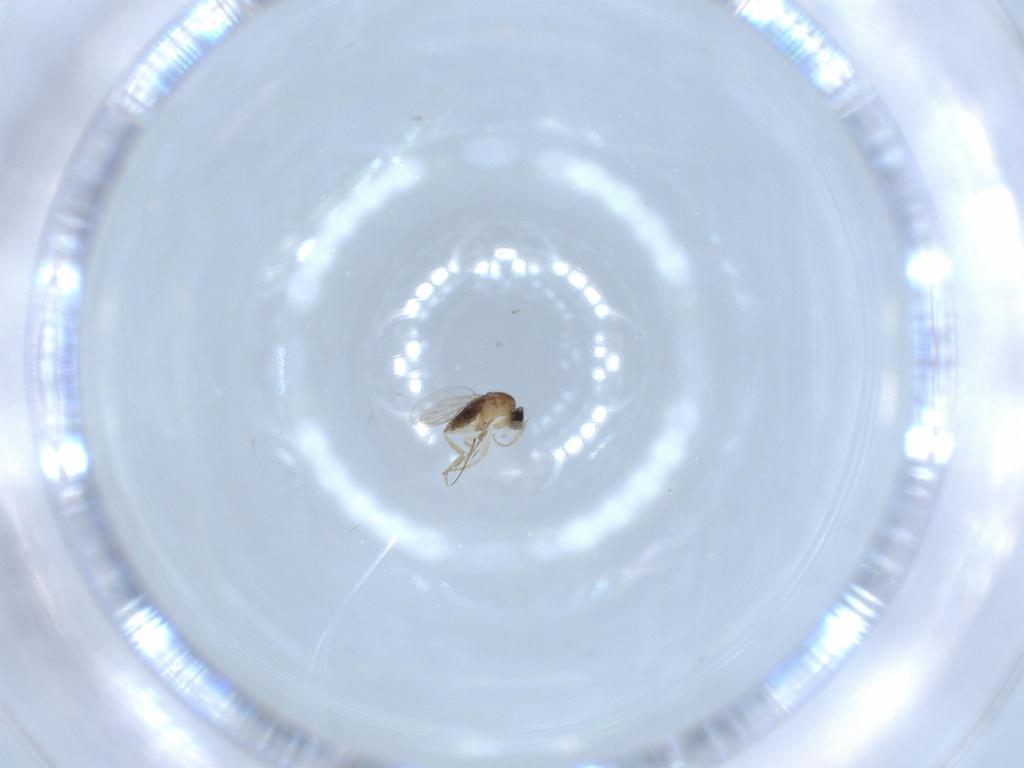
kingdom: Animalia
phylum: Arthropoda
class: Insecta
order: Diptera
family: Phoridae
